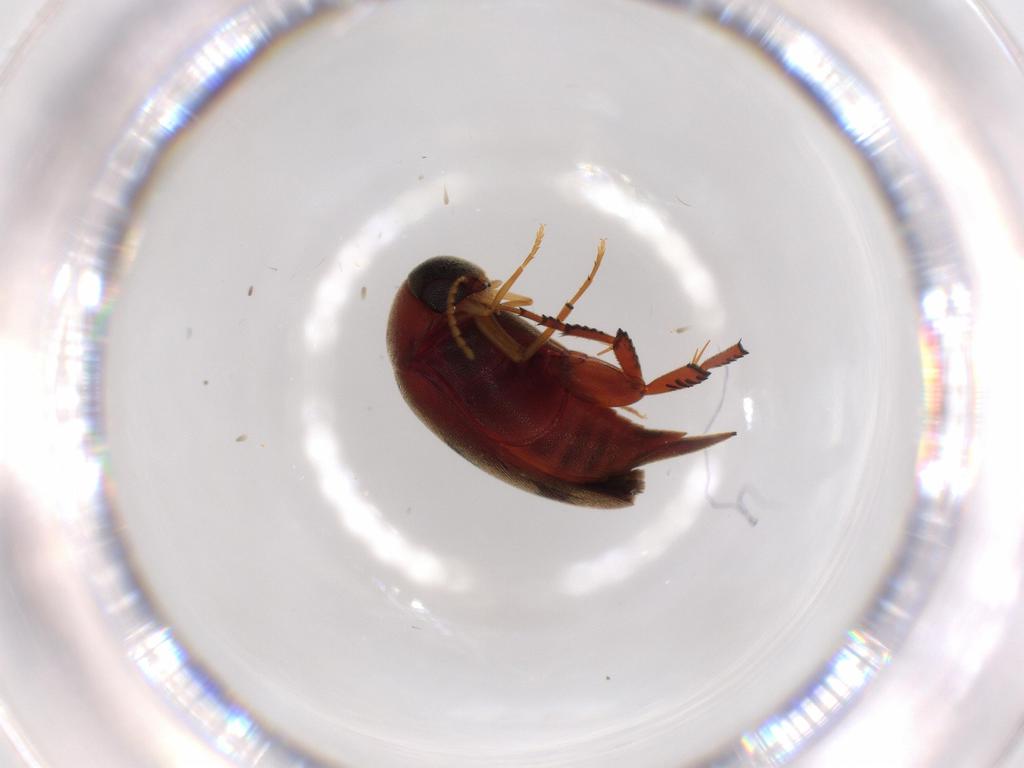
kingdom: Animalia
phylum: Arthropoda
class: Insecta
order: Coleoptera
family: Mordellidae
